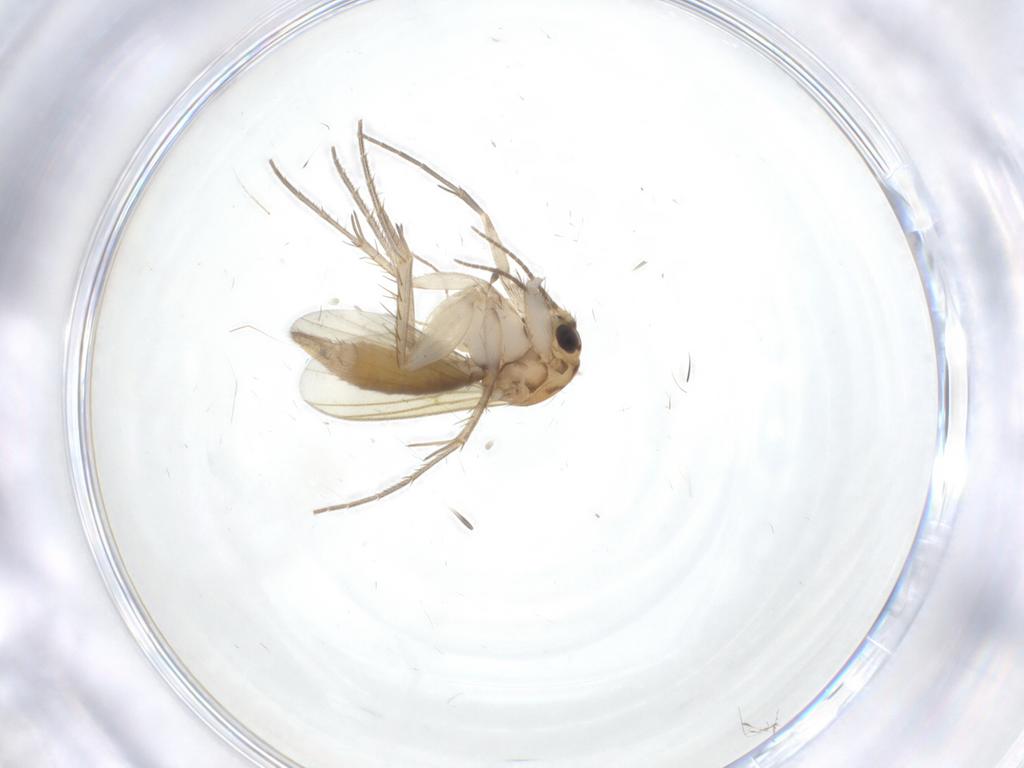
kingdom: Animalia
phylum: Arthropoda
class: Insecta
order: Diptera
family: Mycetophilidae
